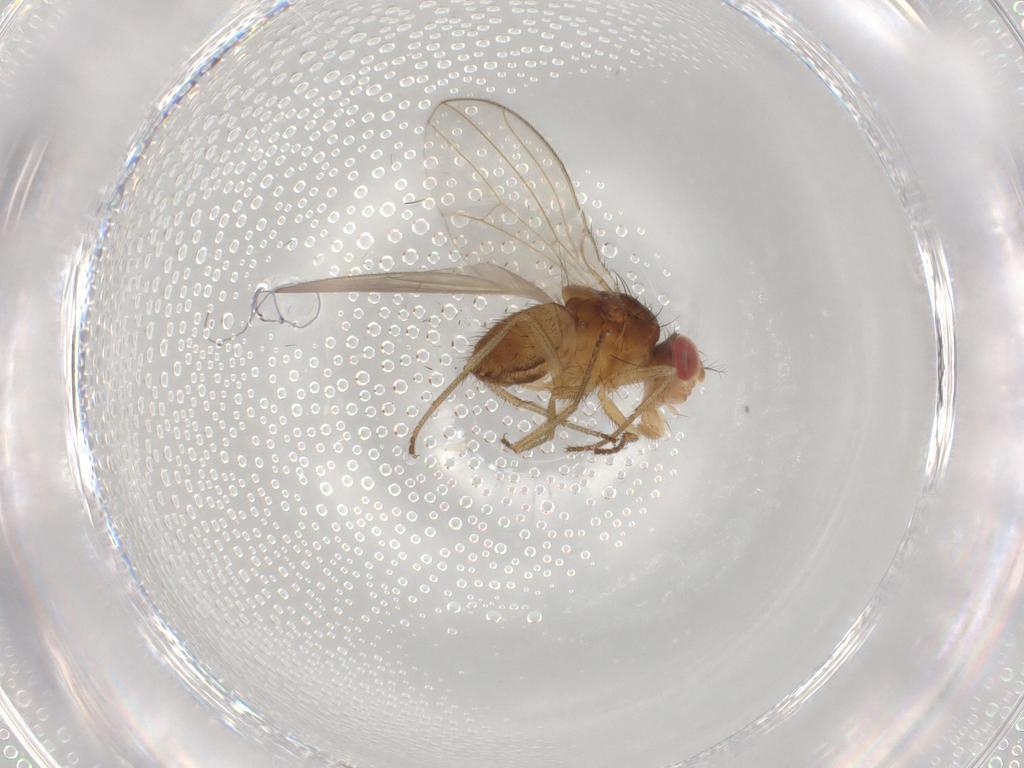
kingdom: Animalia
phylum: Arthropoda
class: Insecta
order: Diptera
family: Drosophilidae
